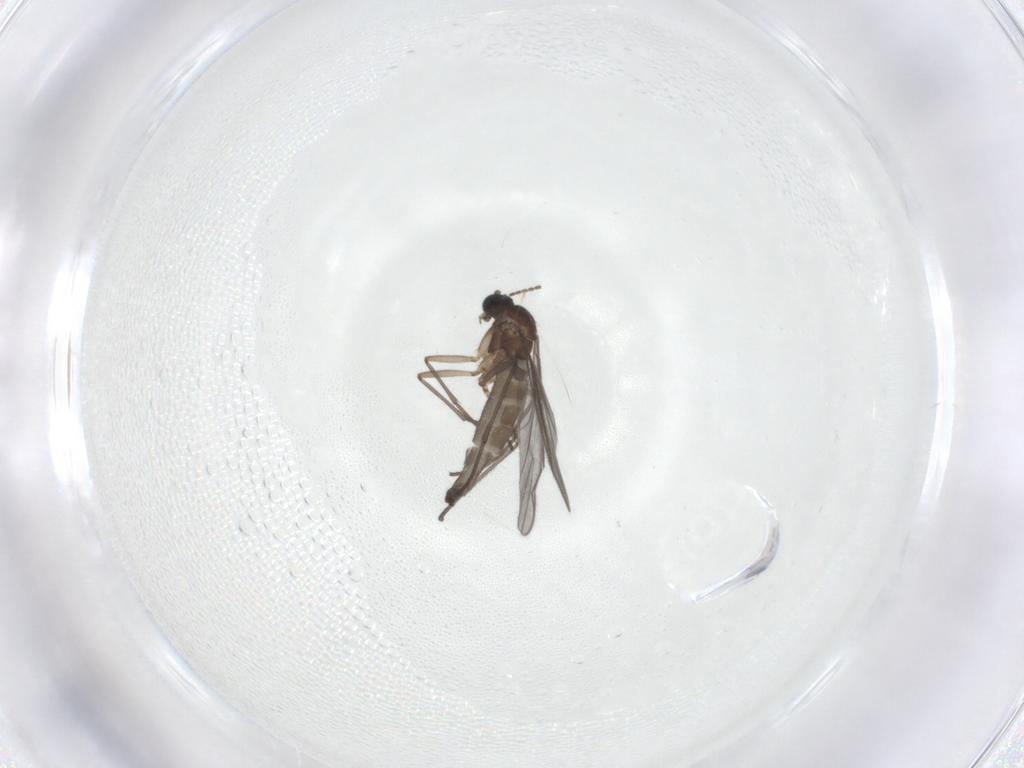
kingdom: Animalia
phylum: Arthropoda
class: Insecta
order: Diptera
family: Sciaridae
